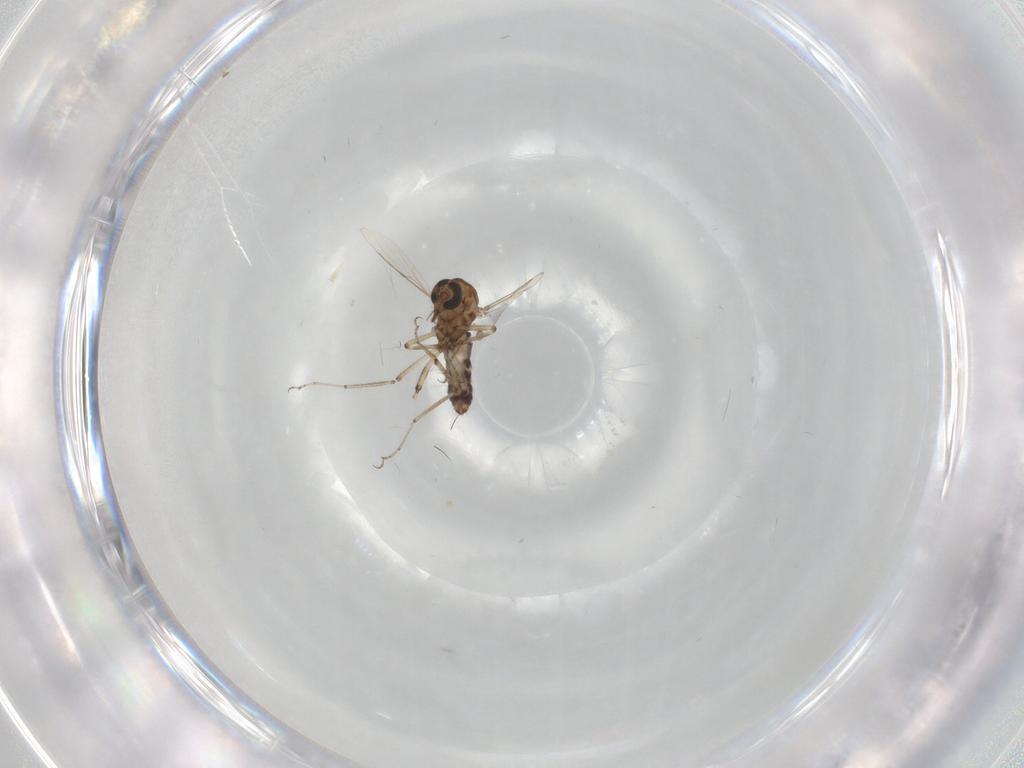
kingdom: Animalia
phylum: Arthropoda
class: Insecta
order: Diptera
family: Ceratopogonidae
